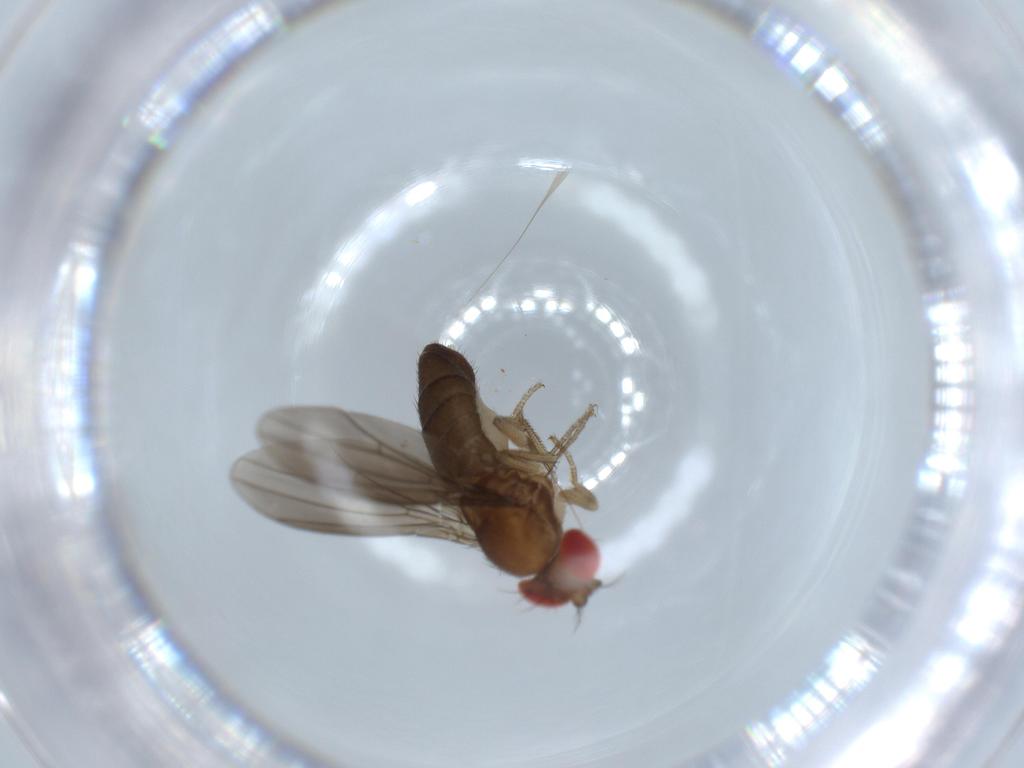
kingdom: Animalia
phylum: Arthropoda
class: Insecta
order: Diptera
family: Drosophilidae
